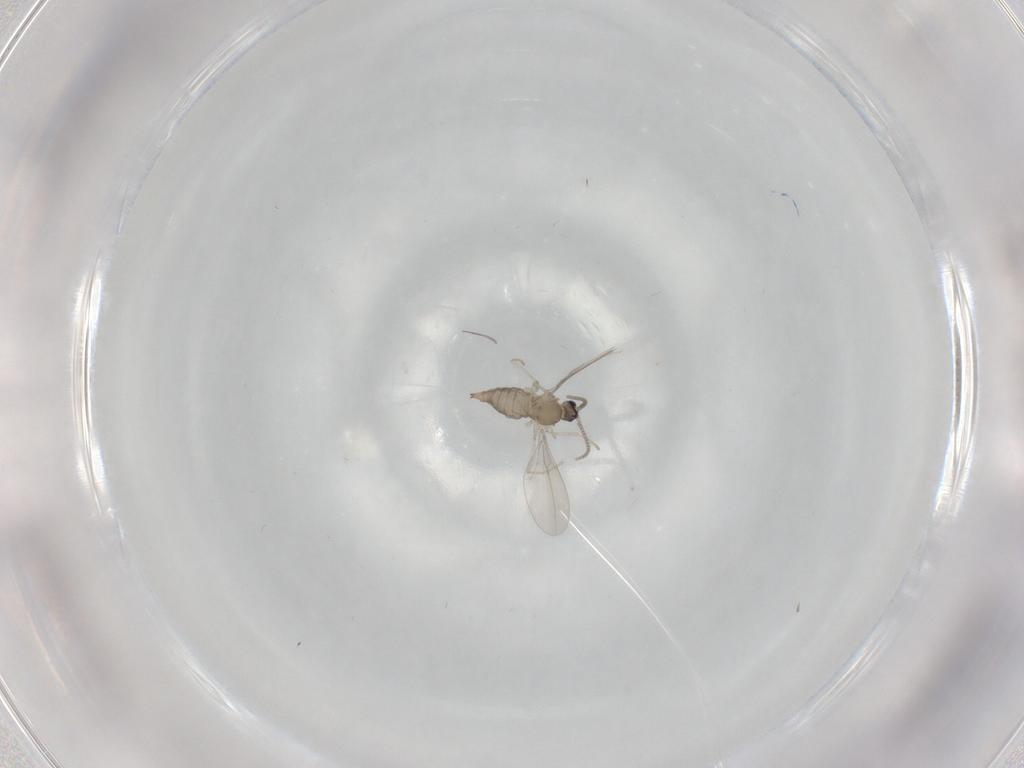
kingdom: Animalia
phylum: Arthropoda
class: Insecta
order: Diptera
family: Cecidomyiidae
